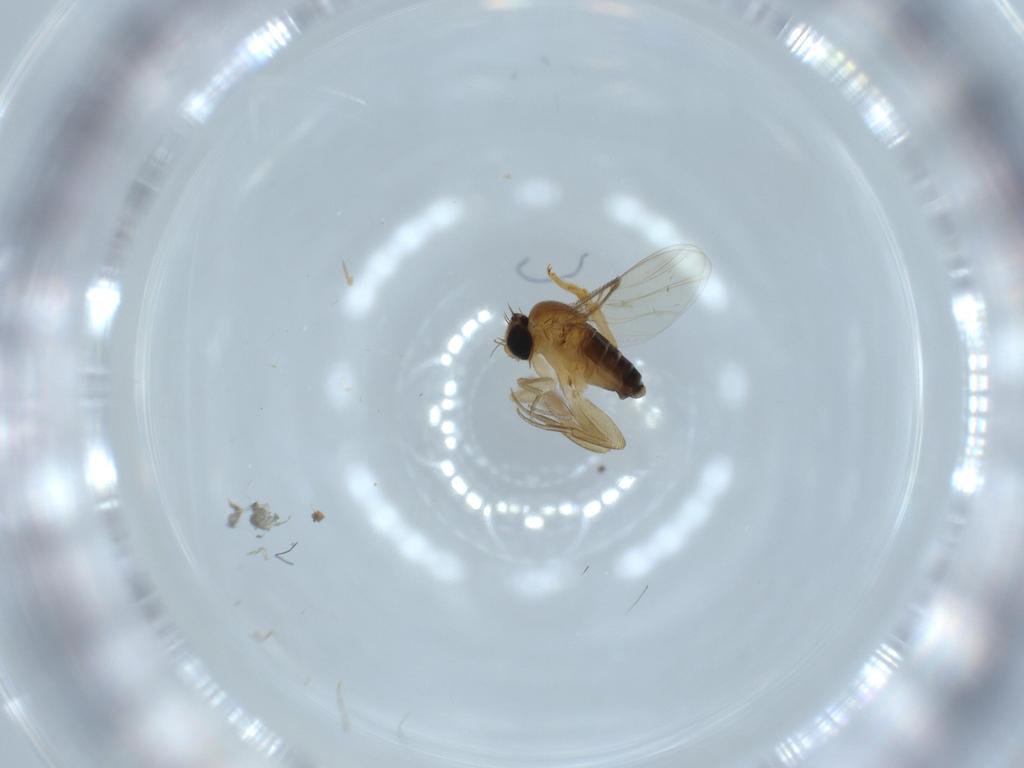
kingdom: Animalia
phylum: Arthropoda
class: Insecta
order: Diptera
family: Phoridae
